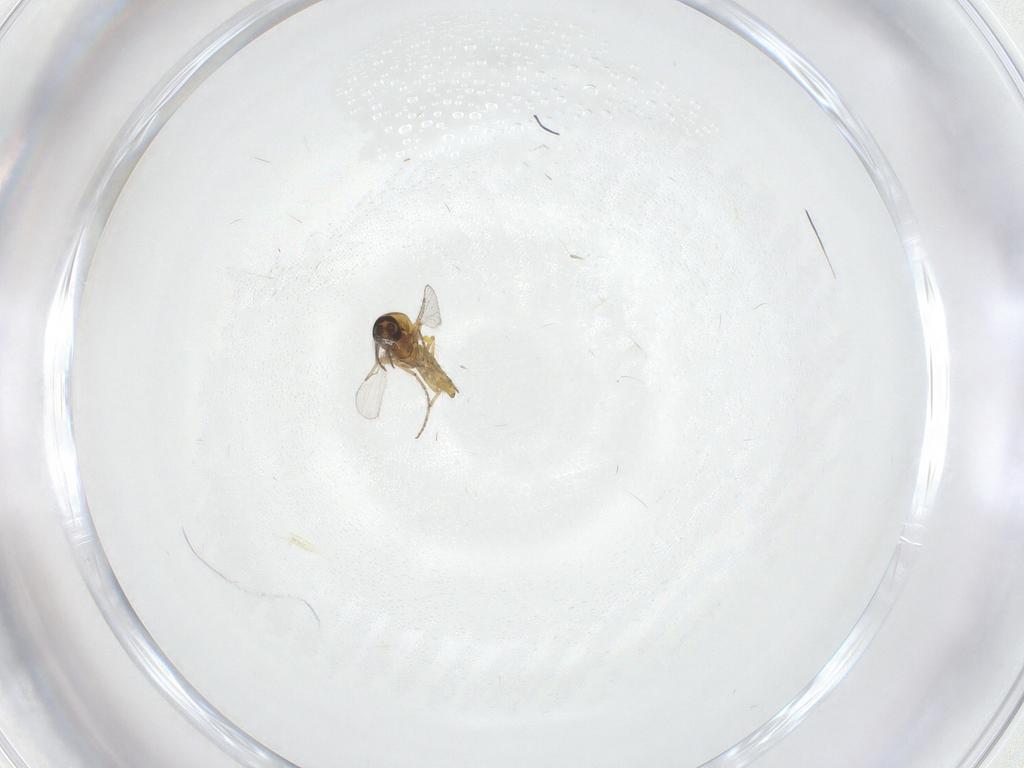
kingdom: Animalia
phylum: Arthropoda
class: Insecta
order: Diptera
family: Ceratopogonidae
